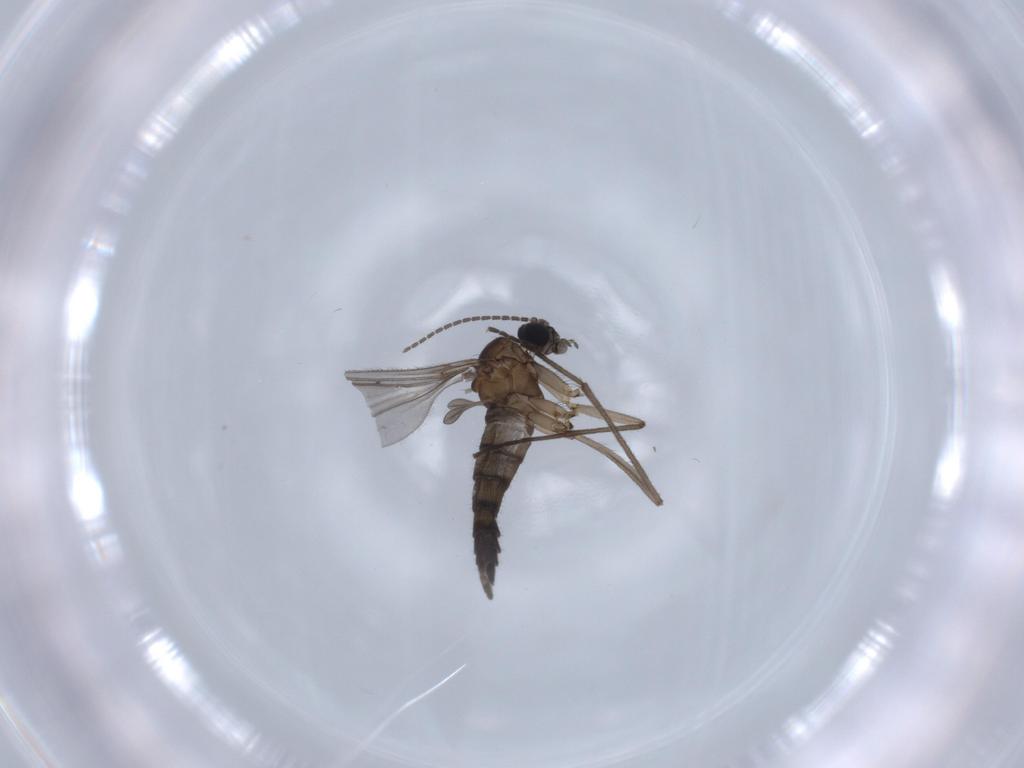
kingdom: Animalia
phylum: Arthropoda
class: Insecta
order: Diptera
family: Sciaridae
